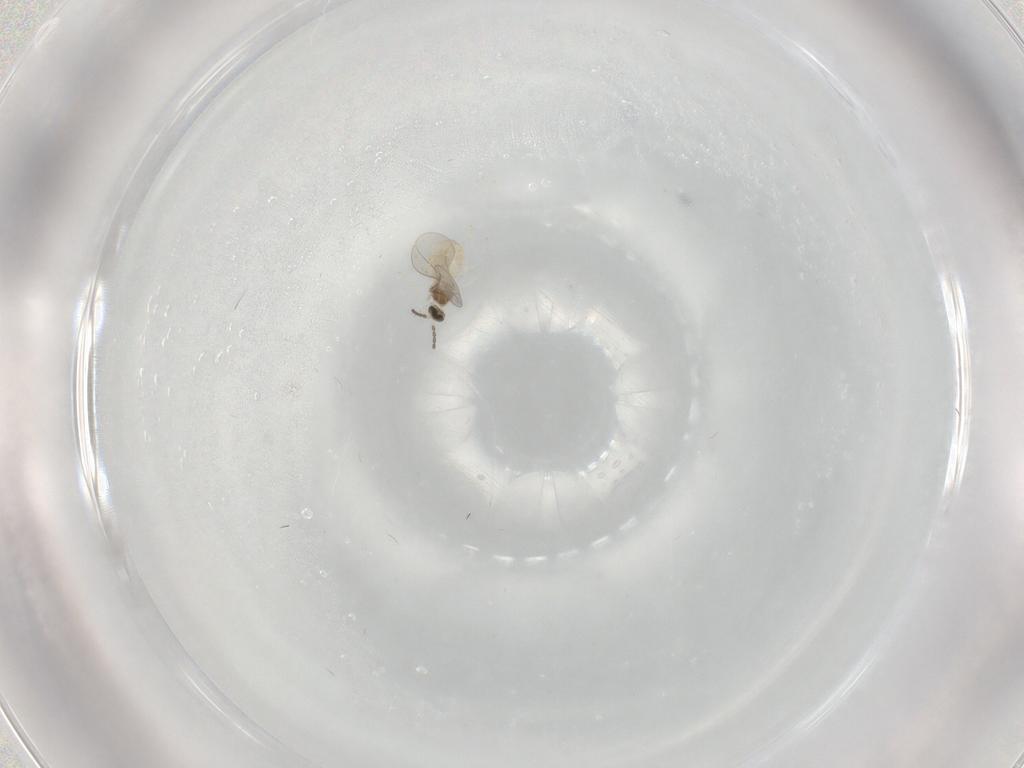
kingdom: Animalia
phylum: Arthropoda
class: Insecta
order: Diptera
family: Cecidomyiidae
